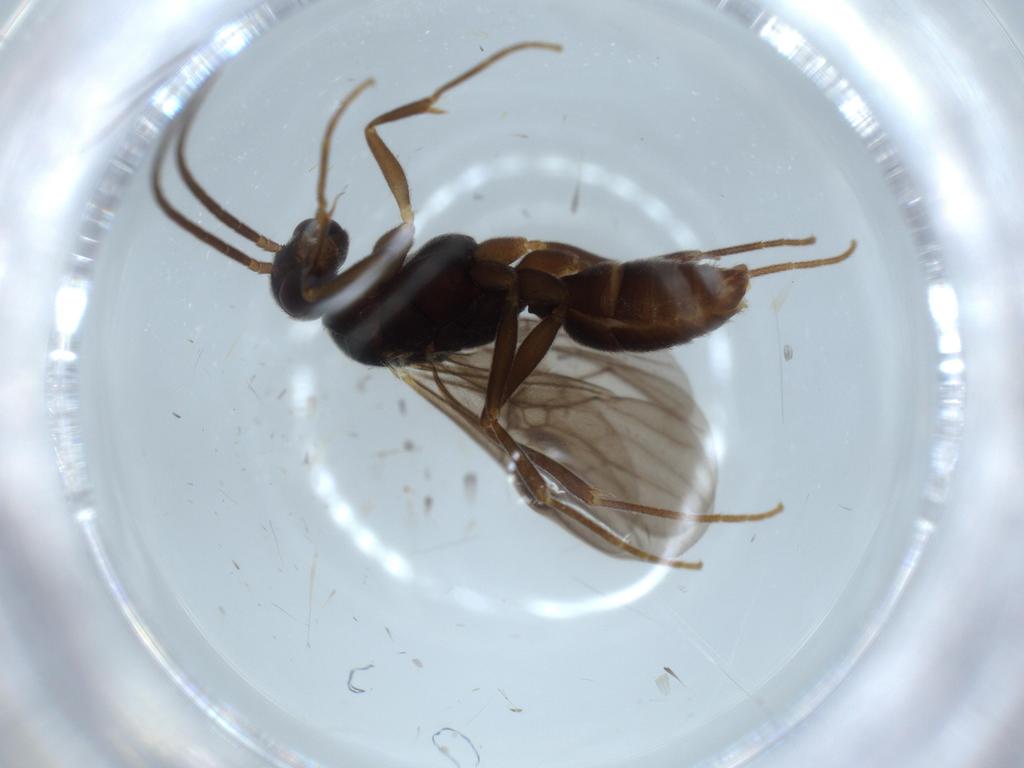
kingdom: Animalia
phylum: Arthropoda
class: Insecta
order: Hymenoptera
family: Formicidae
